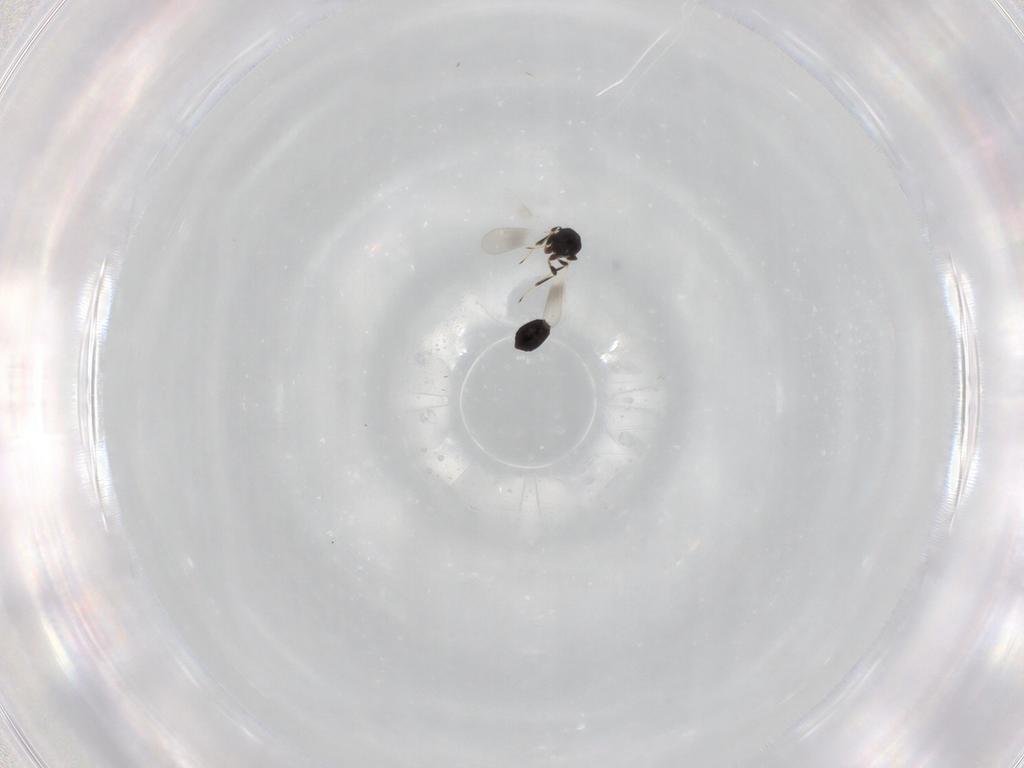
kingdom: Animalia
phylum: Arthropoda
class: Insecta
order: Hymenoptera
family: Platygastridae
